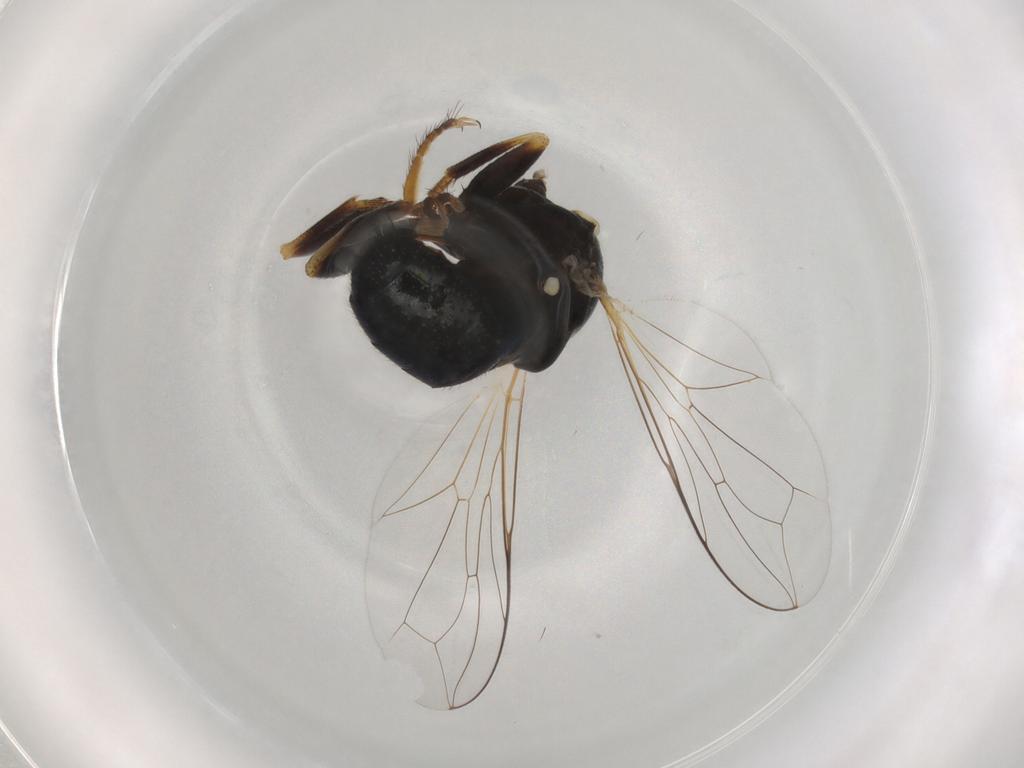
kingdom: Animalia
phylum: Arthropoda
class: Insecta
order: Diptera
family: Pipunculidae
